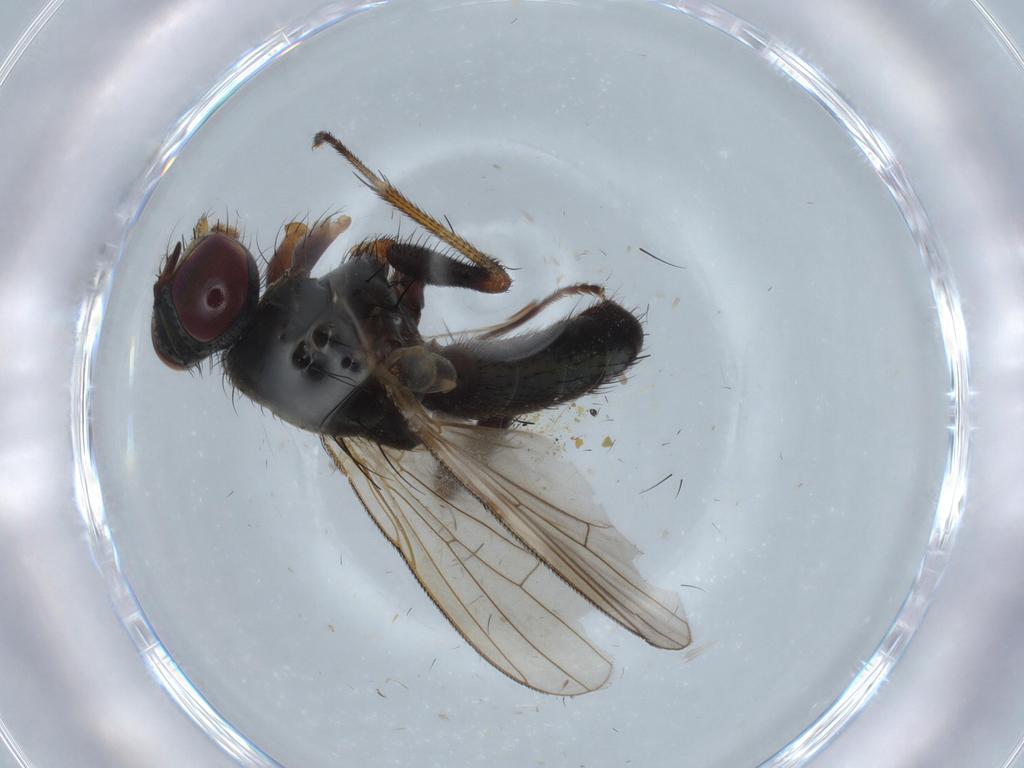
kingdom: Animalia
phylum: Arthropoda
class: Insecta
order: Diptera
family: Muscidae
